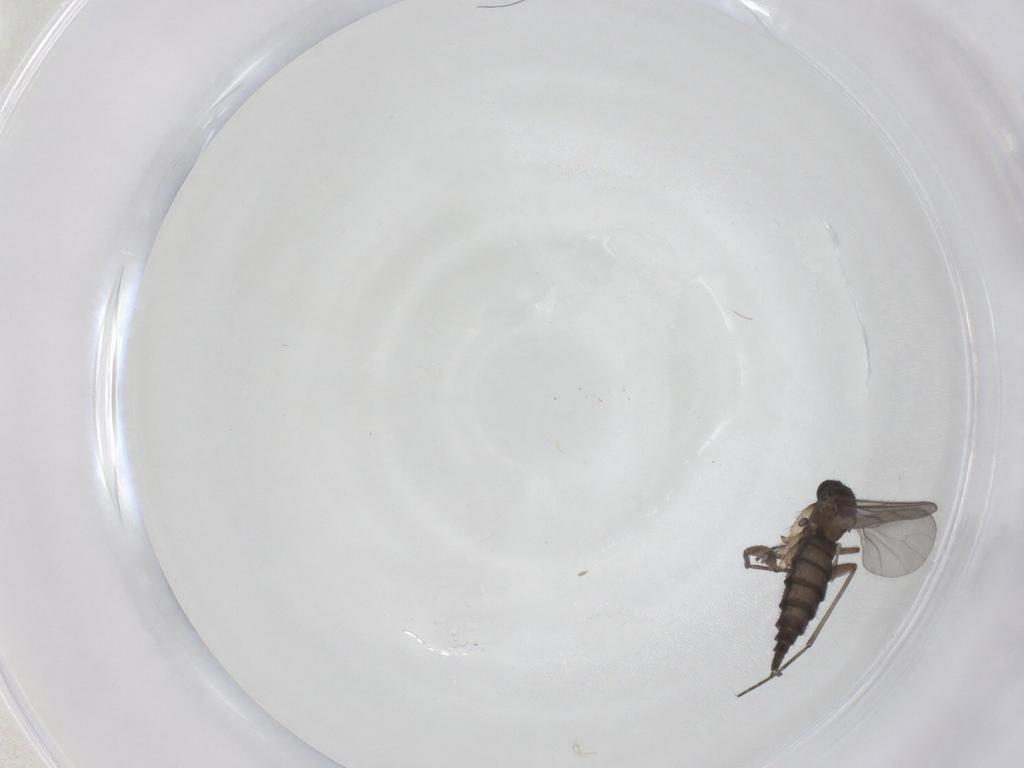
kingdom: Animalia
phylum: Arthropoda
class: Insecta
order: Diptera
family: Sciaridae
